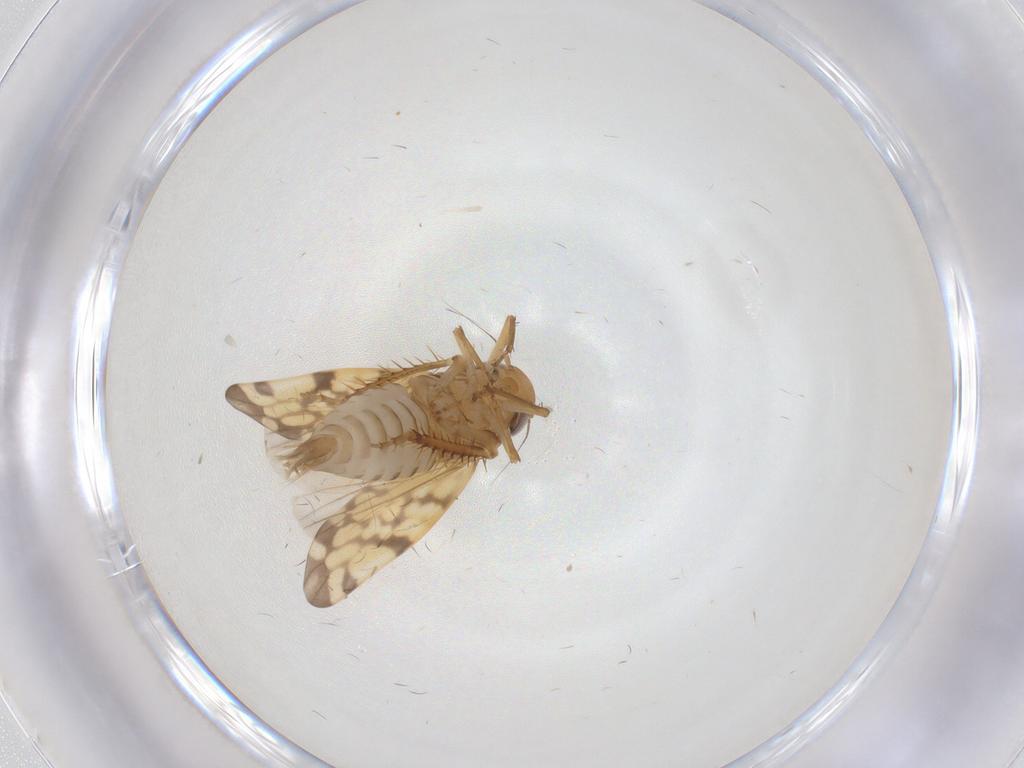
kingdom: Animalia
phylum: Arthropoda
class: Insecta
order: Hemiptera
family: Cicadellidae
